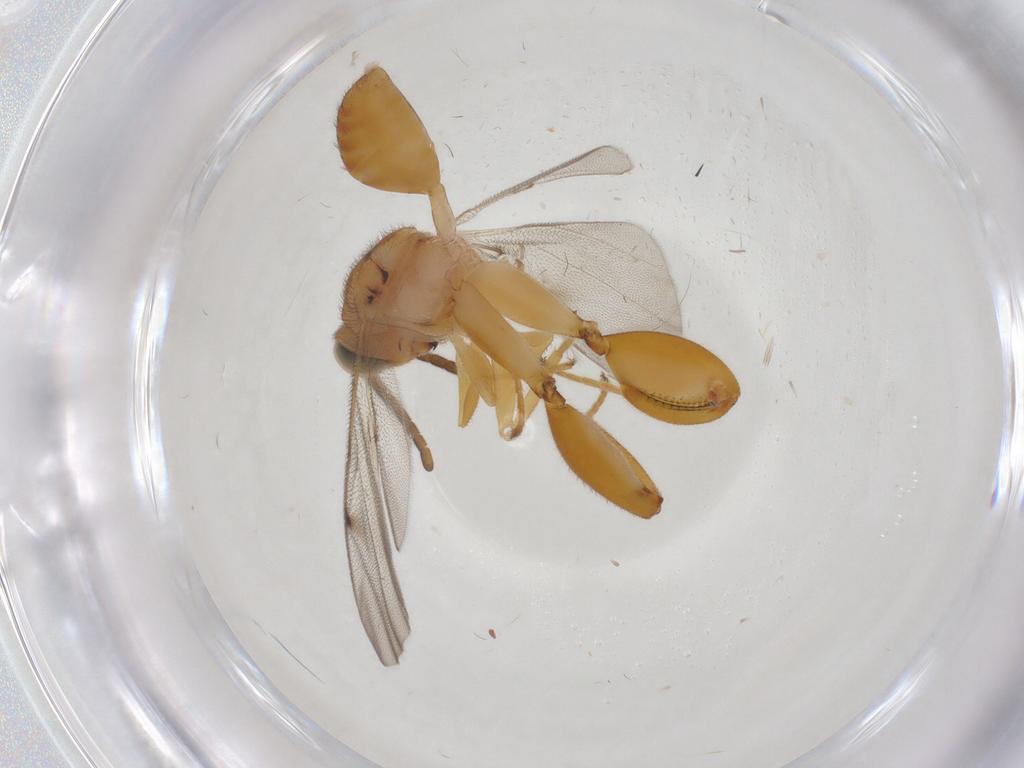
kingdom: Animalia
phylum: Arthropoda
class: Insecta
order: Hymenoptera
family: Chalcididae
